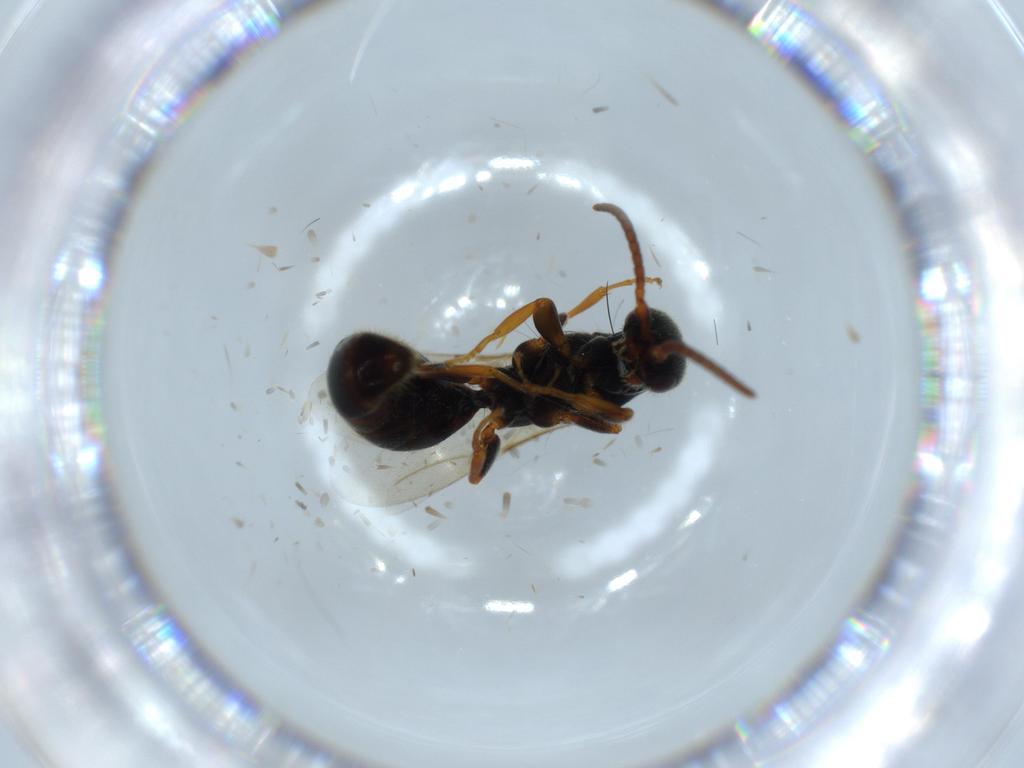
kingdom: Animalia
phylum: Arthropoda
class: Insecta
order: Hymenoptera
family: Bethylidae
